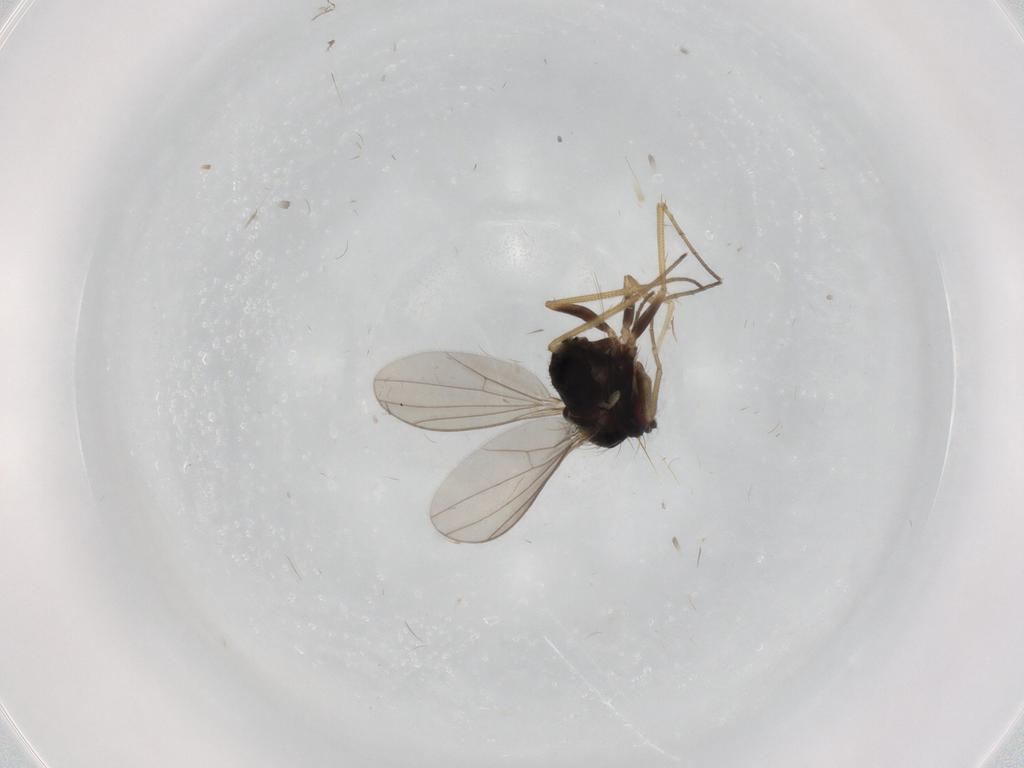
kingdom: Animalia
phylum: Arthropoda
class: Insecta
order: Diptera
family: Chironomidae
